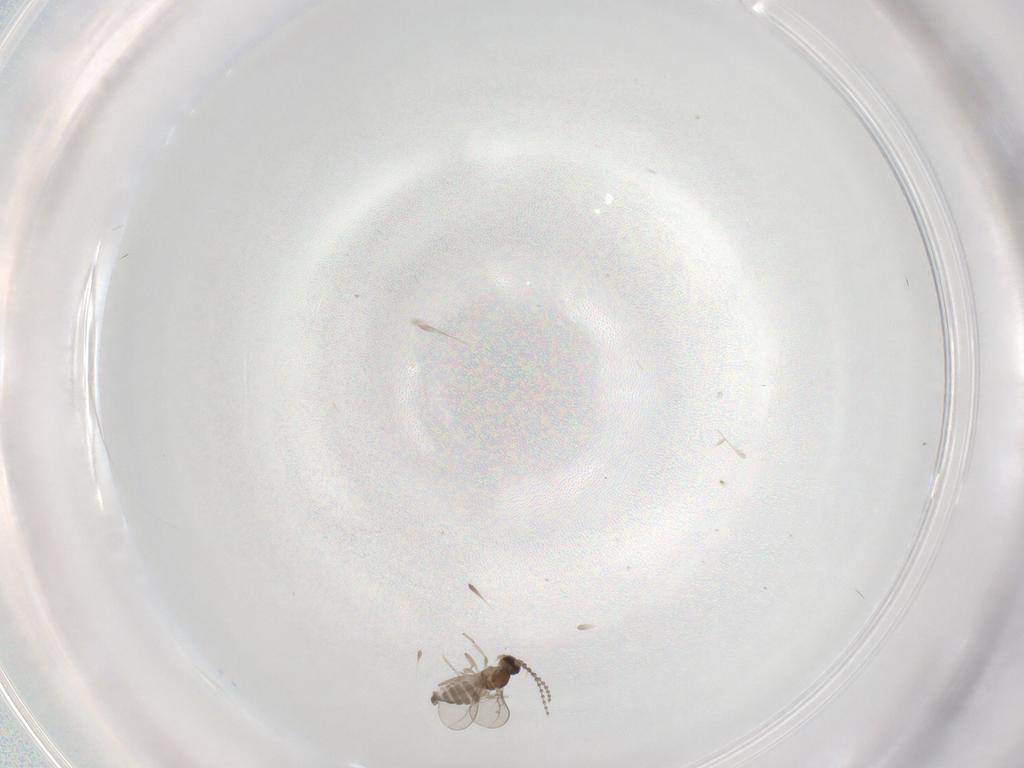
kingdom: Animalia
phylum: Arthropoda
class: Insecta
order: Diptera
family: Cecidomyiidae
